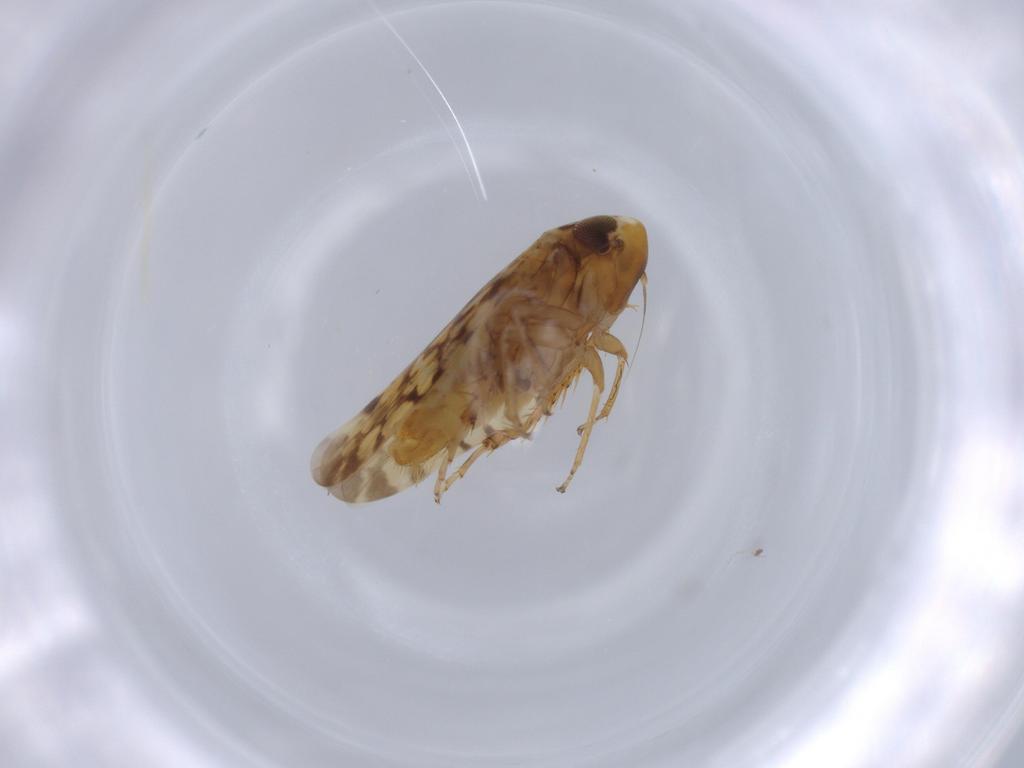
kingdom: Animalia
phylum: Arthropoda
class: Insecta
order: Hemiptera
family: Cicadellidae
